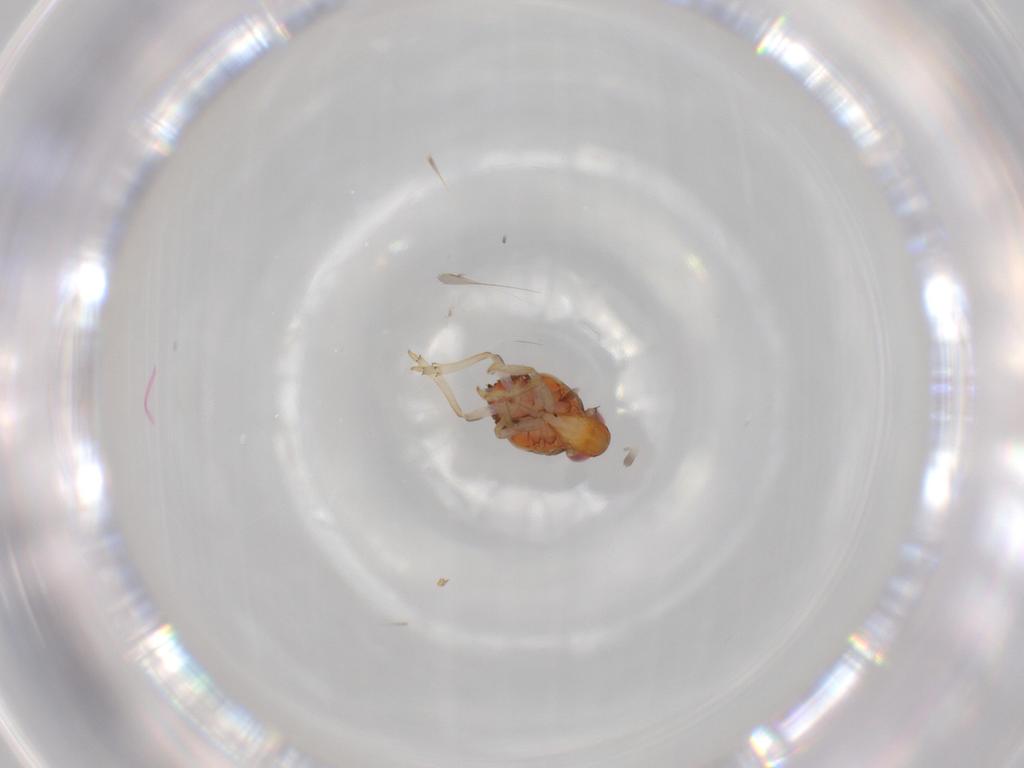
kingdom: Animalia
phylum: Arthropoda
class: Insecta
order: Hemiptera
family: Issidae
